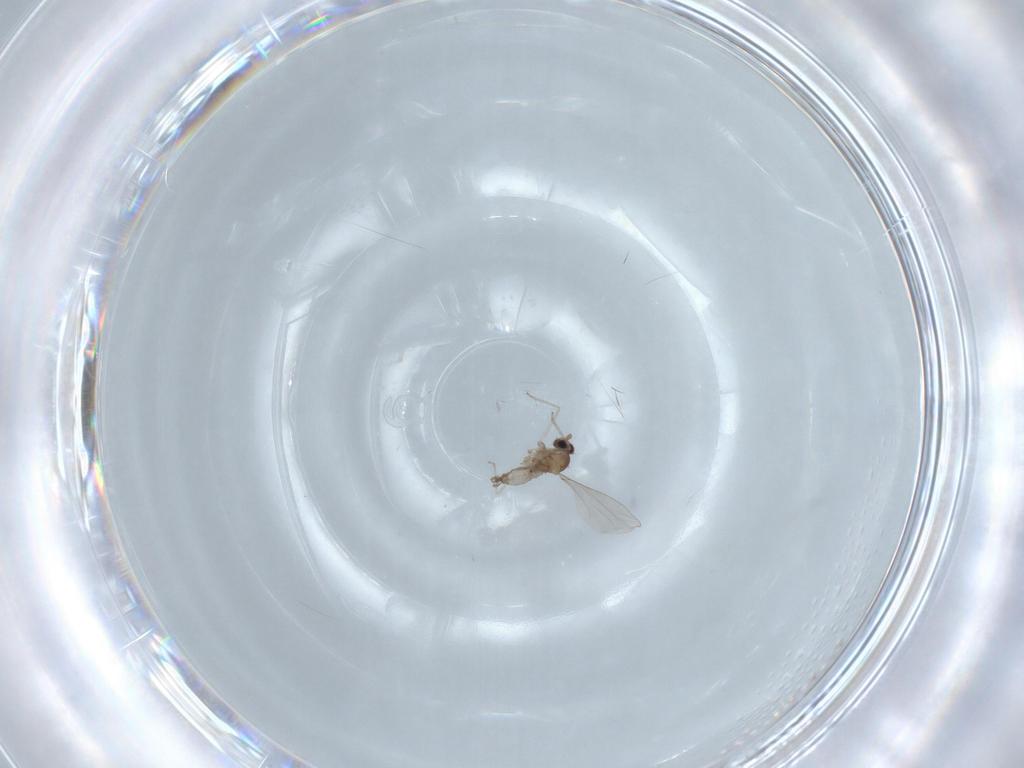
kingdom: Animalia
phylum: Arthropoda
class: Insecta
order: Diptera
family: Cecidomyiidae
